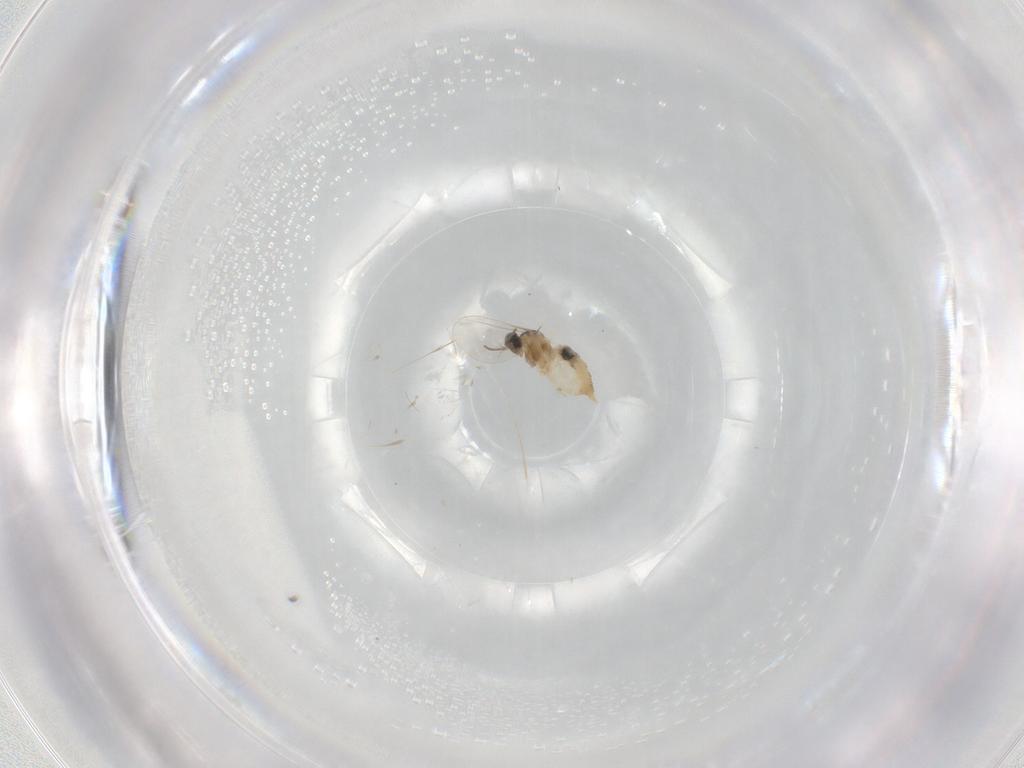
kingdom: Animalia
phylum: Arthropoda
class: Insecta
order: Diptera
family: Cecidomyiidae
